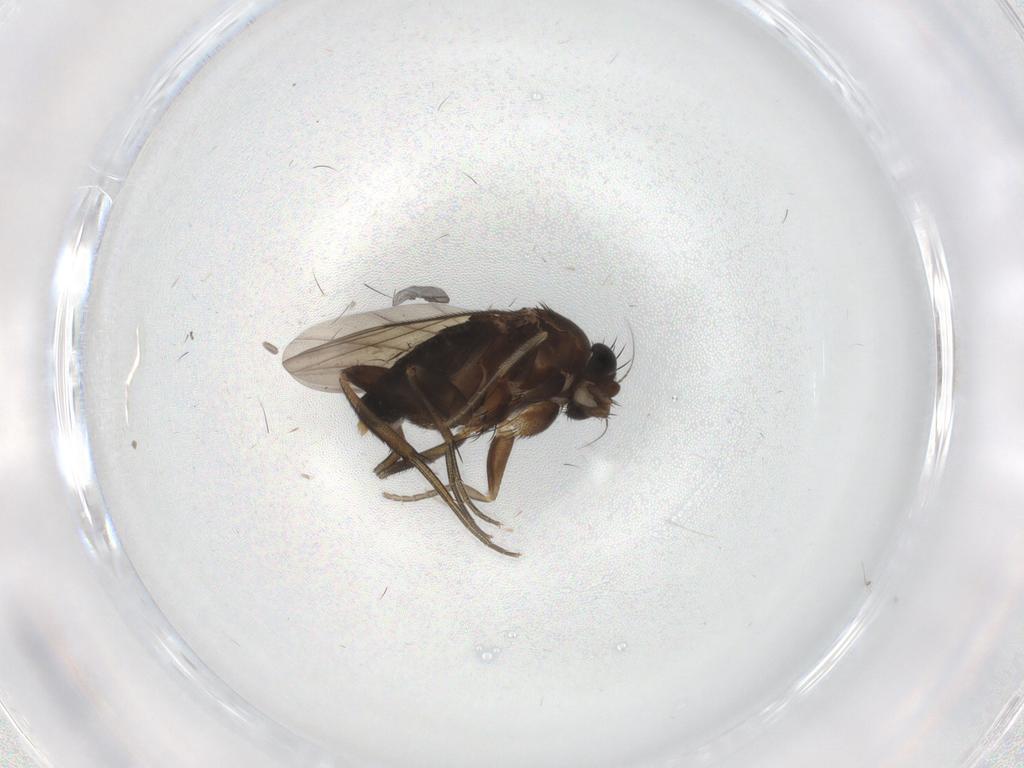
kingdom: Animalia
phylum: Arthropoda
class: Insecta
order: Diptera
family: Phoridae
